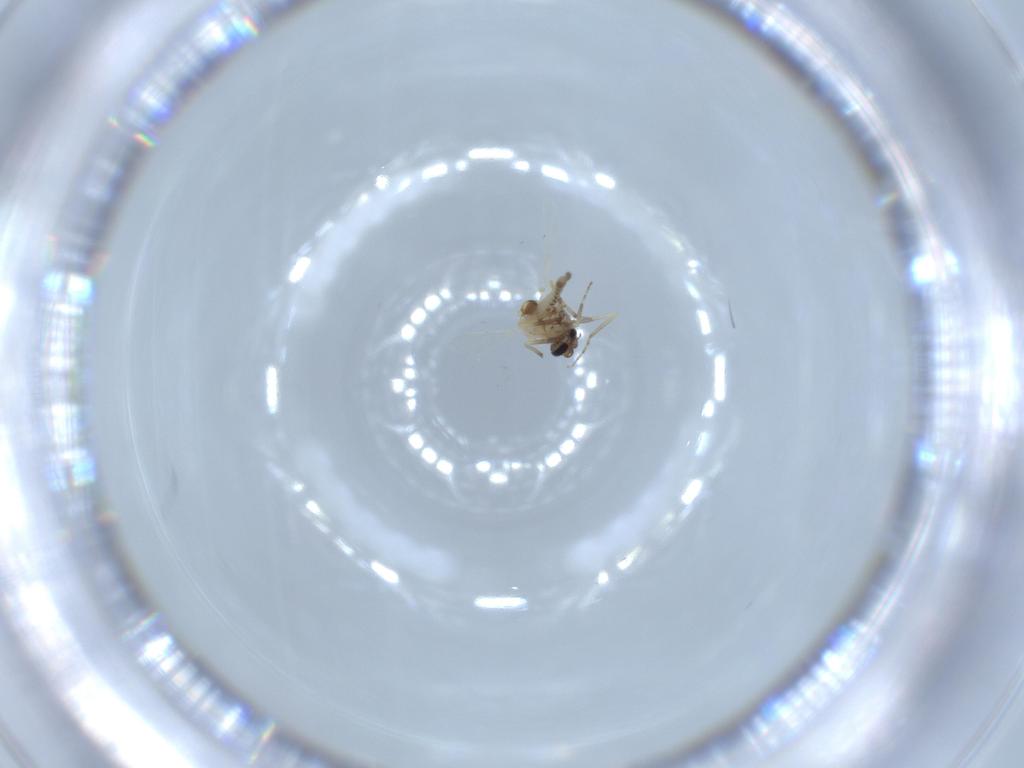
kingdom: Animalia
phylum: Arthropoda
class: Insecta
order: Diptera
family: Ceratopogonidae
